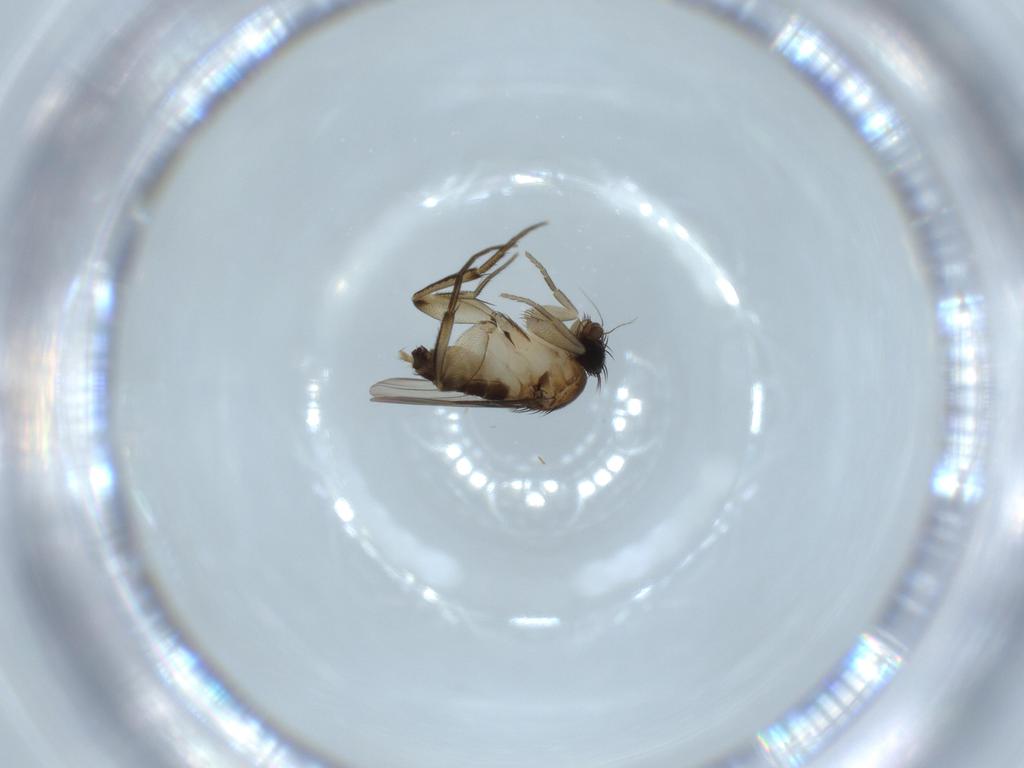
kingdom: Animalia
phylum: Arthropoda
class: Insecta
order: Diptera
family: Phoridae
